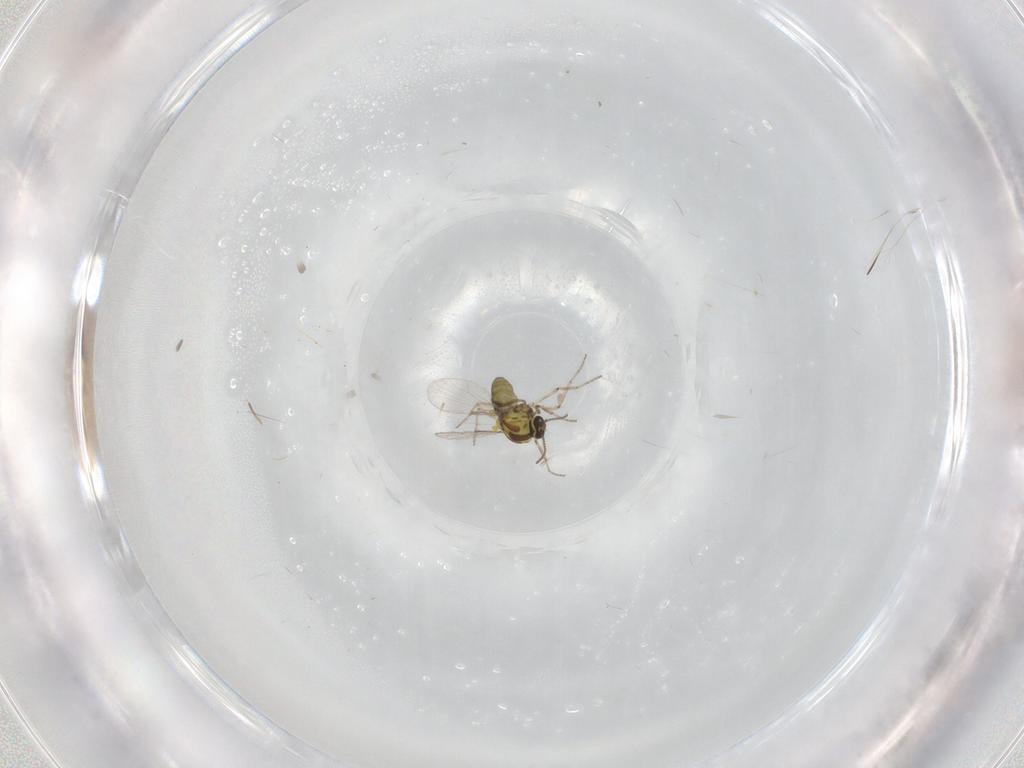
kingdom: Animalia
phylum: Arthropoda
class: Insecta
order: Diptera
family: Ceratopogonidae
